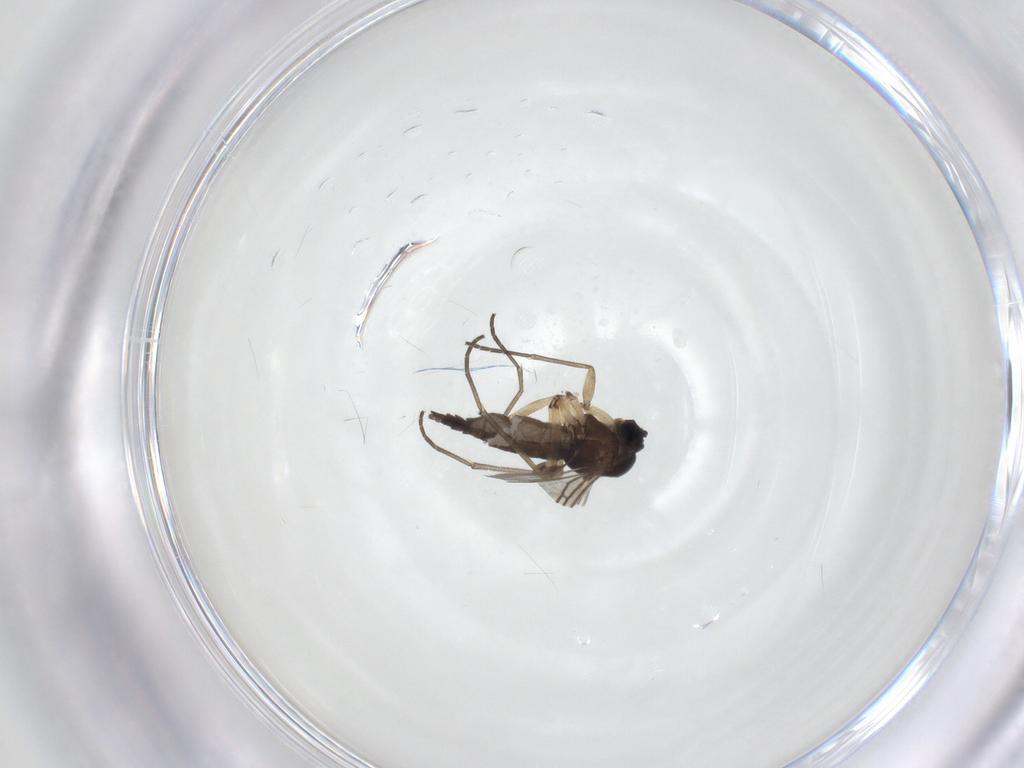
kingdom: Animalia
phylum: Arthropoda
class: Insecta
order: Diptera
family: Sciaridae
